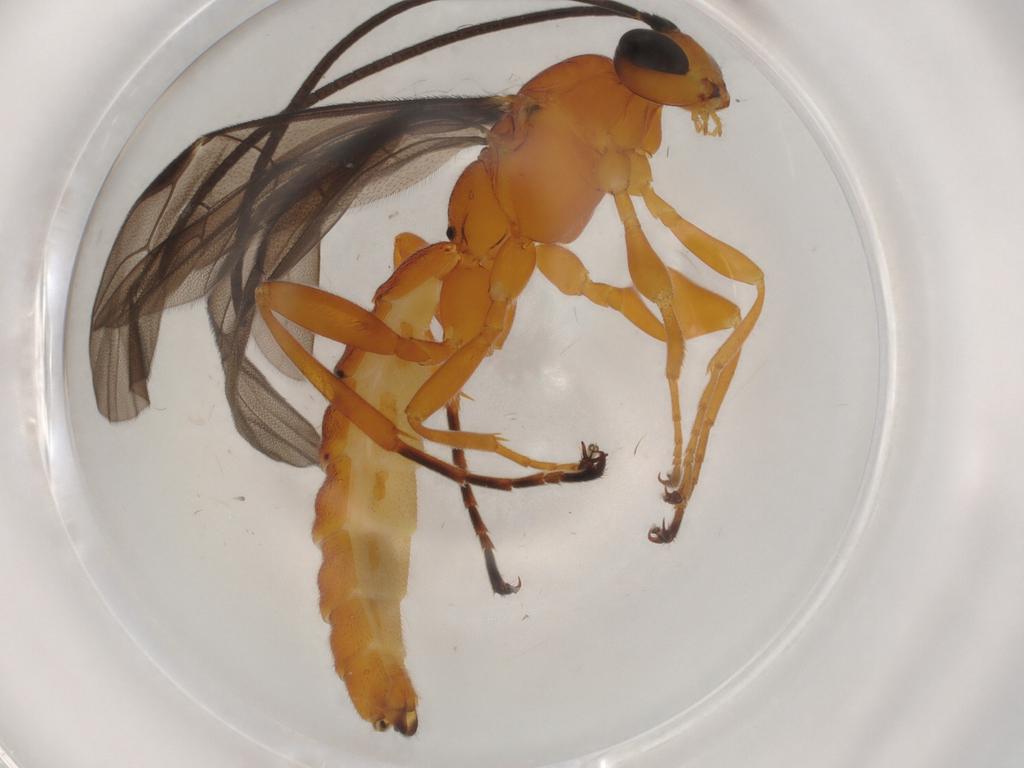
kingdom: Animalia
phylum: Arthropoda
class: Insecta
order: Hymenoptera
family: Ichneumonidae
